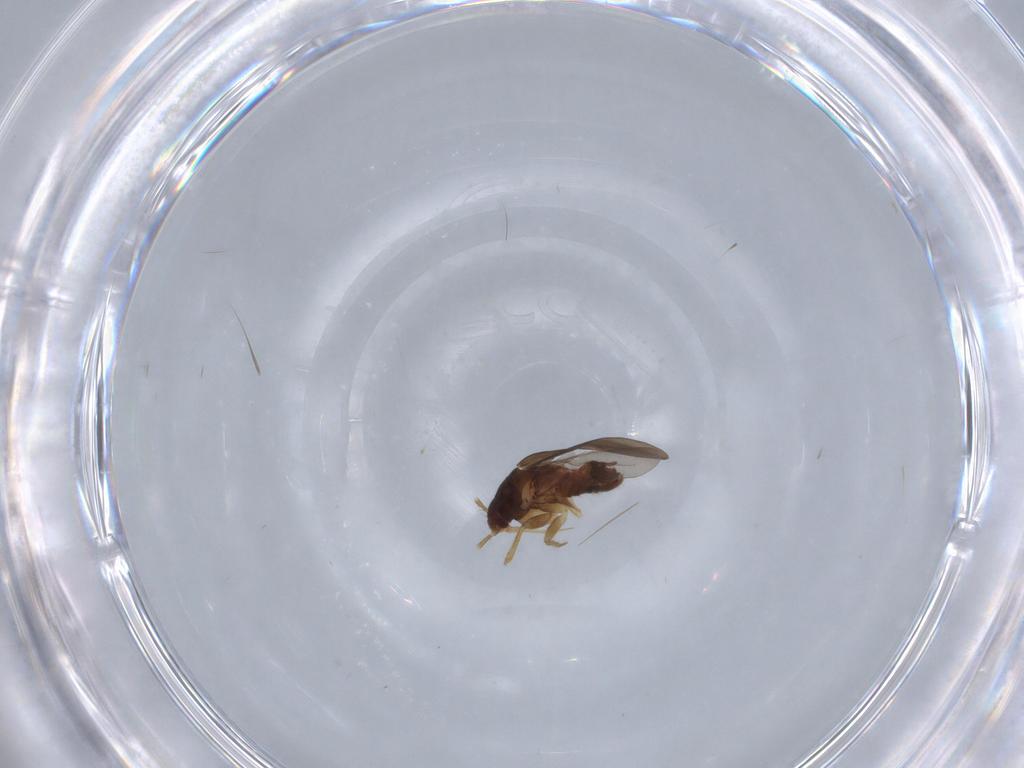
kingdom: Animalia
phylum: Arthropoda
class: Insecta
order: Hemiptera
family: Ceratocombidae
